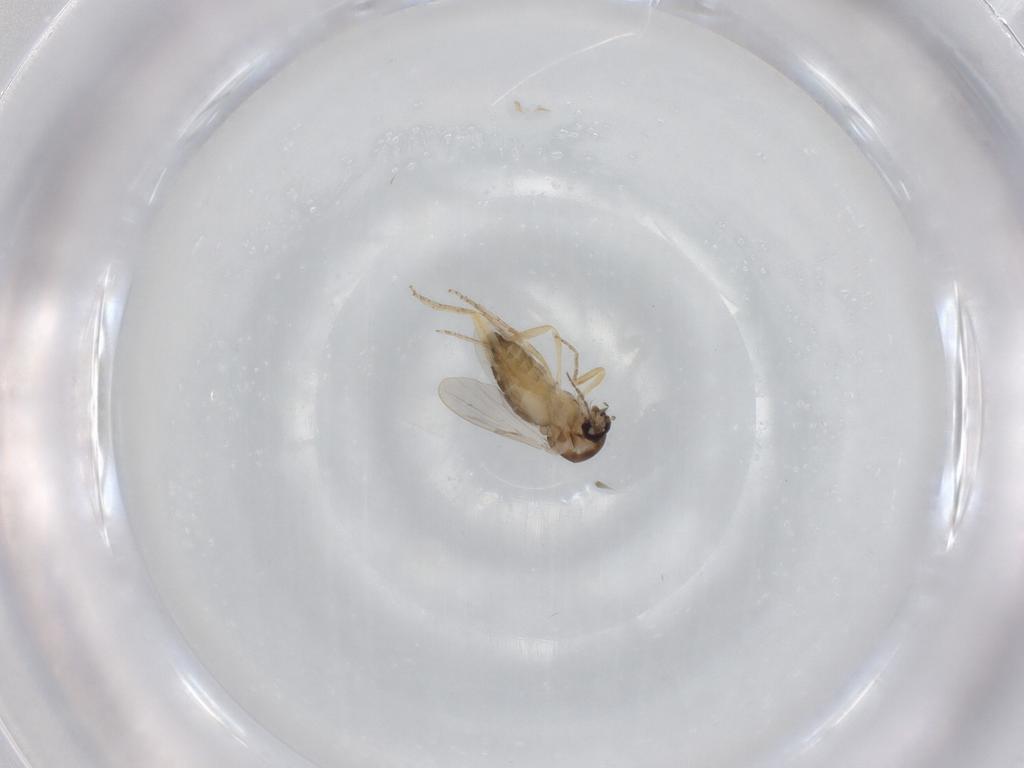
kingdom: Animalia
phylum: Arthropoda
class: Insecta
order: Diptera
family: Ceratopogonidae
